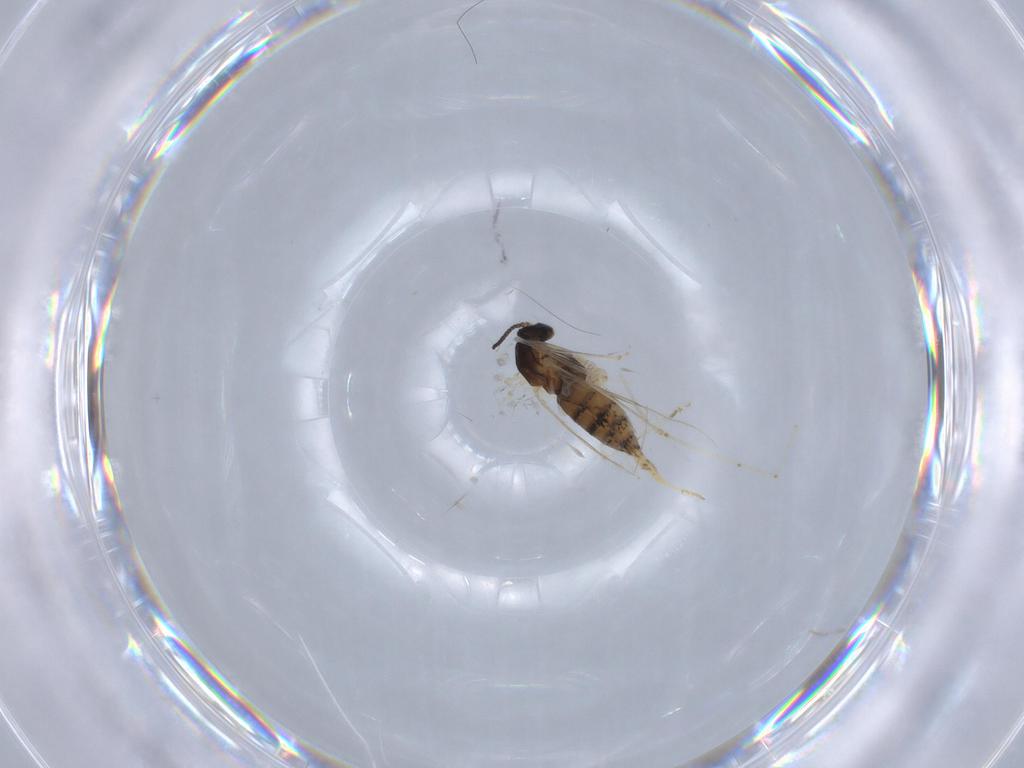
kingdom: Animalia
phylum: Arthropoda
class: Insecta
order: Diptera
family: Cecidomyiidae
